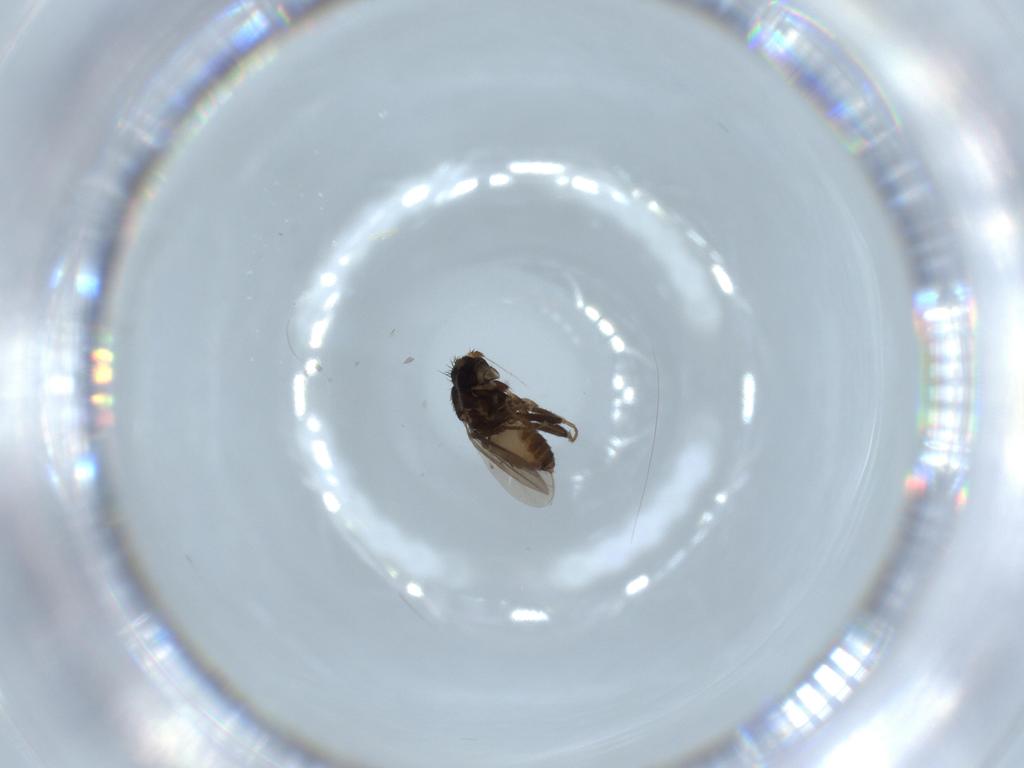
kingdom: Animalia
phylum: Arthropoda
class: Insecta
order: Diptera
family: Sphaeroceridae
